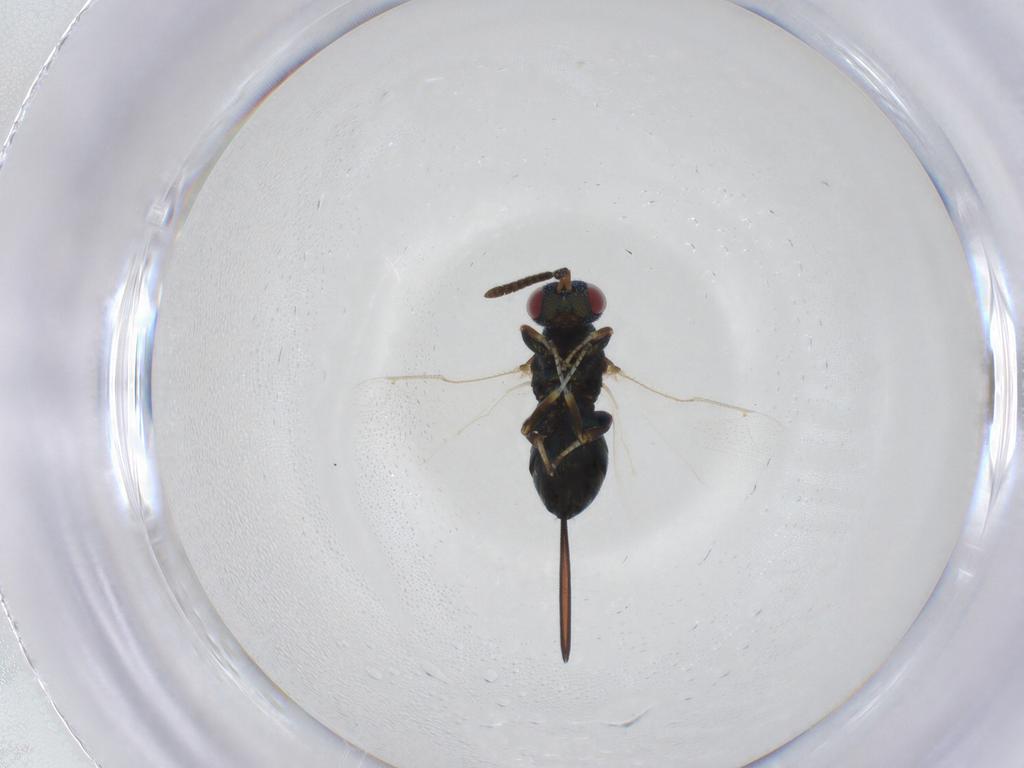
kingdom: Animalia
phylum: Arthropoda
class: Insecta
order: Hymenoptera
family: Torymidae
